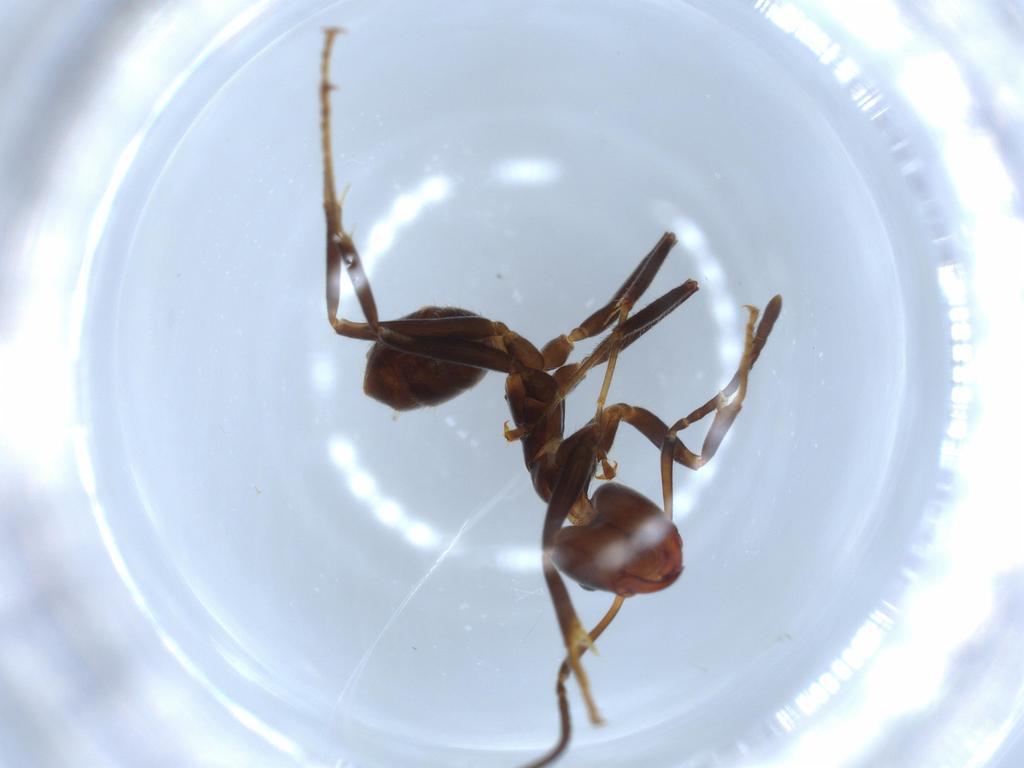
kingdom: Animalia
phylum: Arthropoda
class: Insecta
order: Hymenoptera
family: Formicidae
